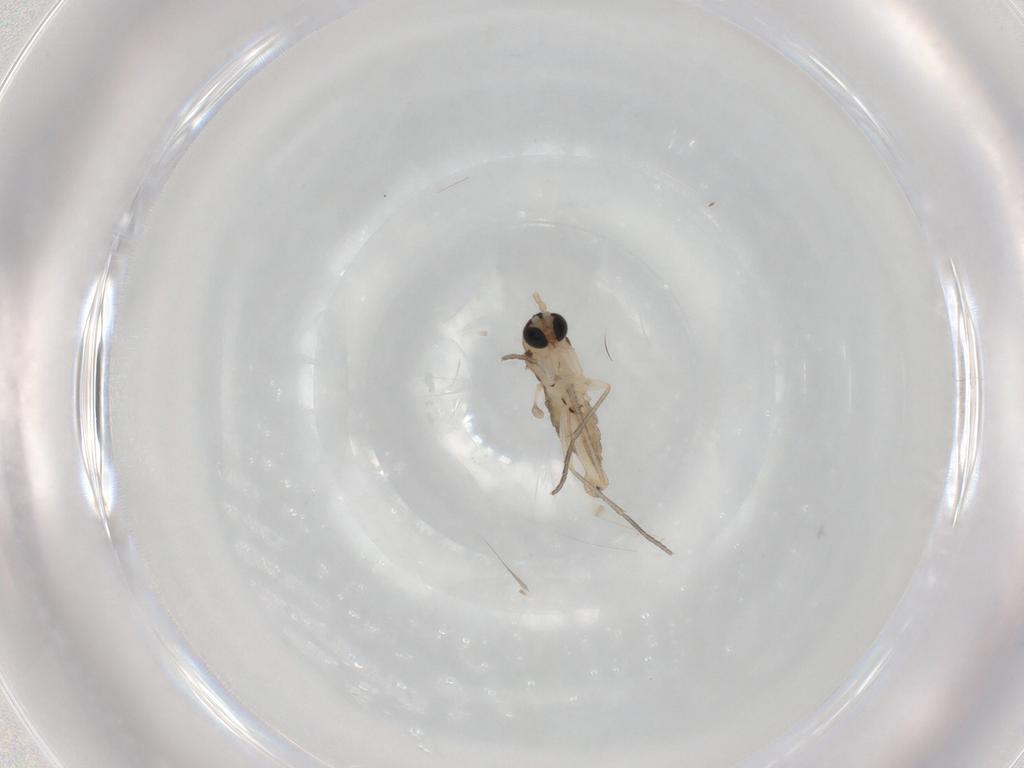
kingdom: Animalia
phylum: Arthropoda
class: Insecta
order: Diptera
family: Sciaridae
